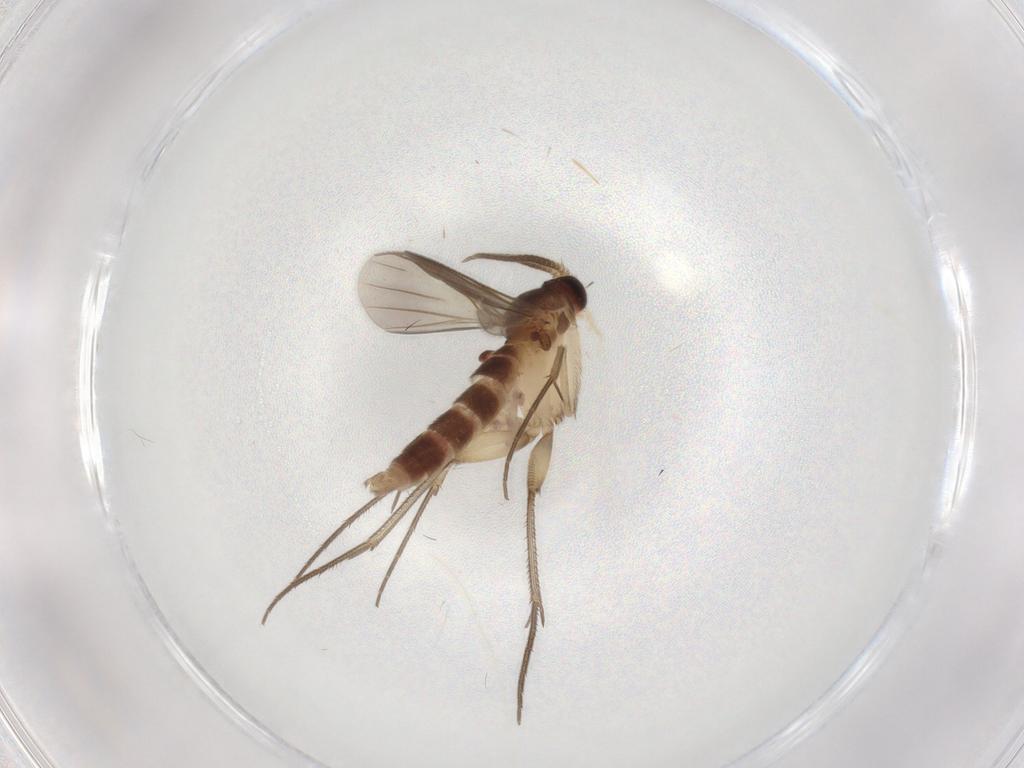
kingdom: Animalia
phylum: Arthropoda
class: Insecta
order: Diptera
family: Mycetophilidae
